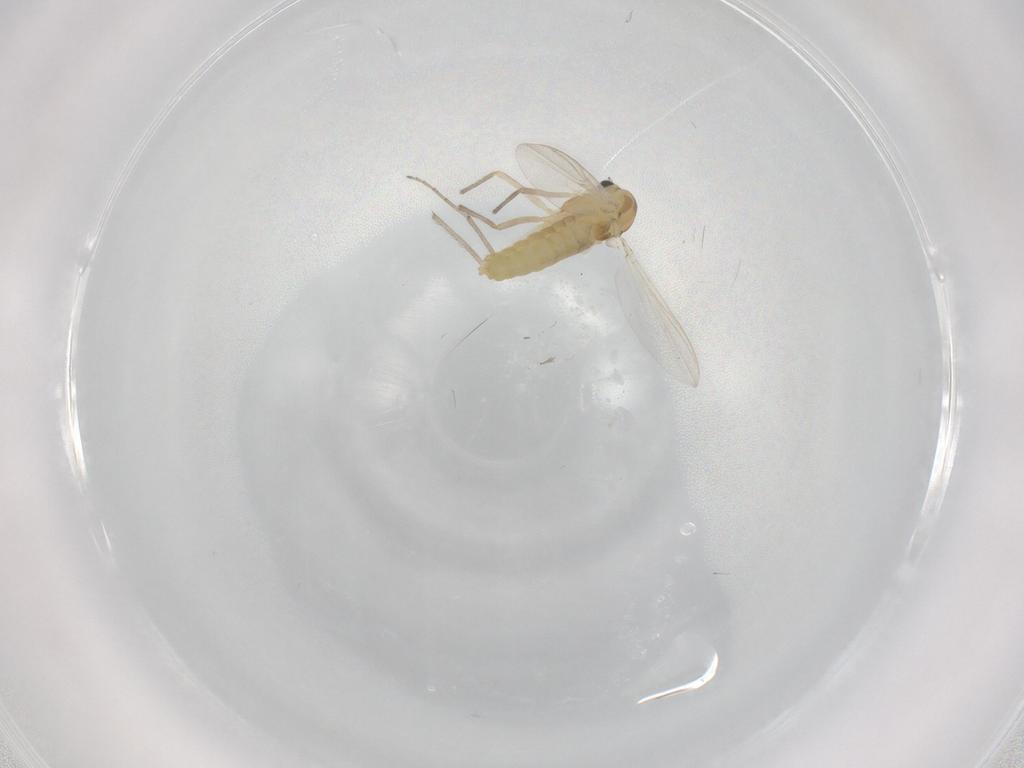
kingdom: Animalia
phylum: Arthropoda
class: Insecta
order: Diptera
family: Chironomidae
